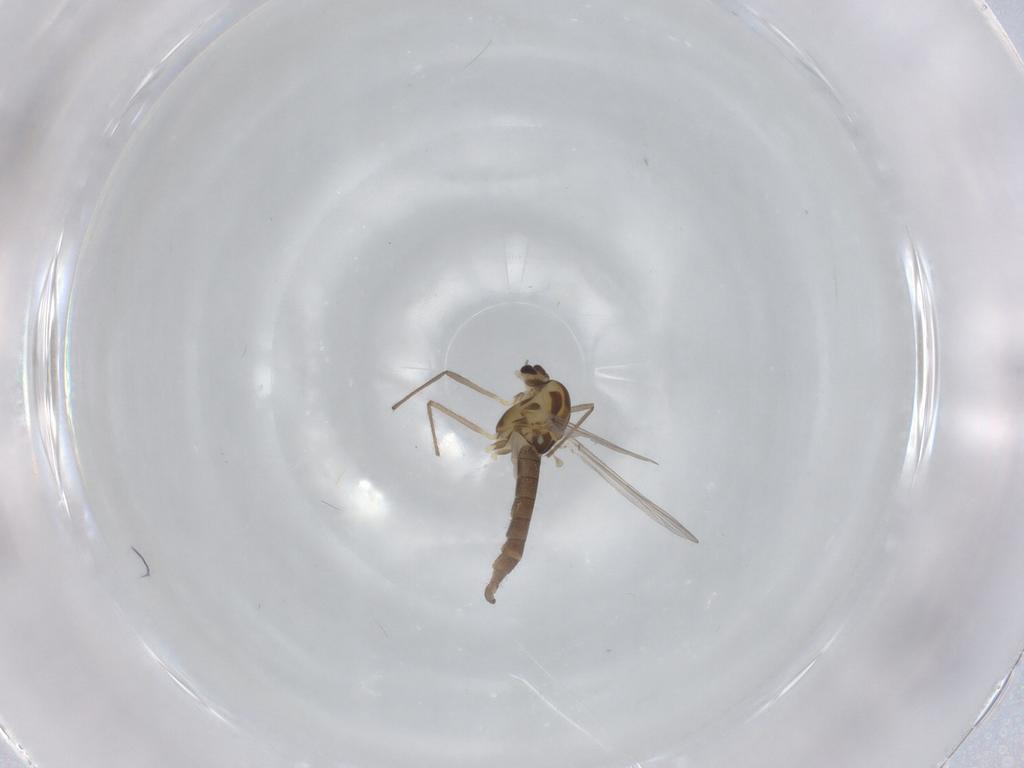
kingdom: Animalia
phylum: Arthropoda
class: Insecta
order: Diptera
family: Chironomidae
